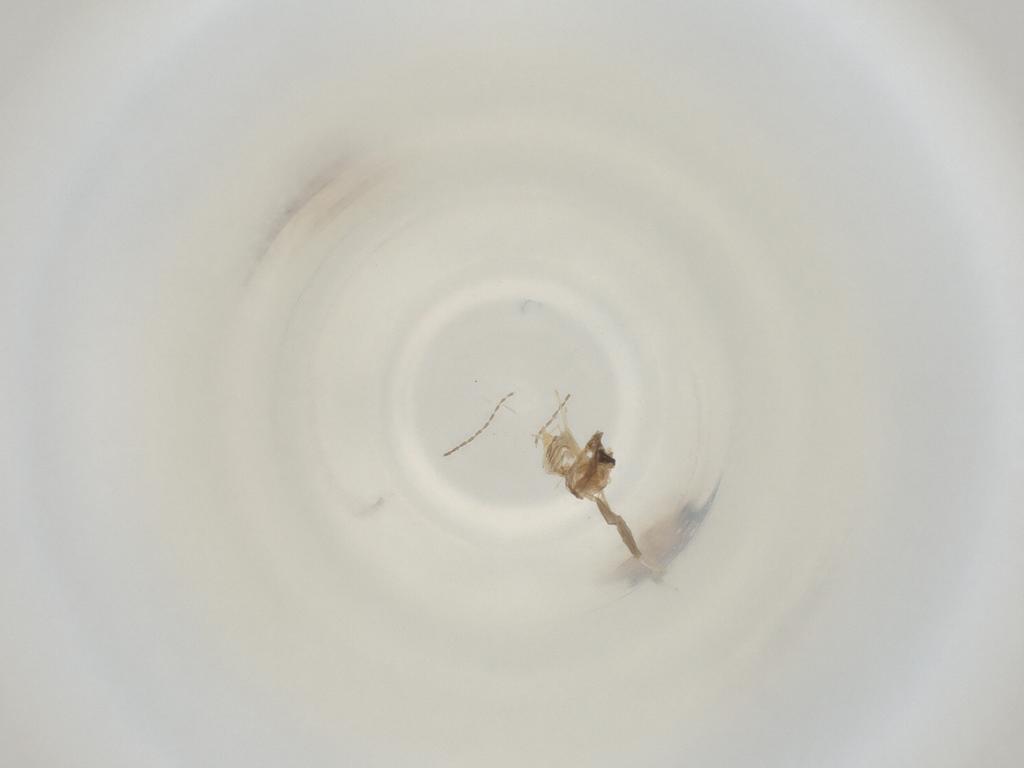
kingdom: Animalia
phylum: Arthropoda
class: Insecta
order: Diptera
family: Cecidomyiidae
